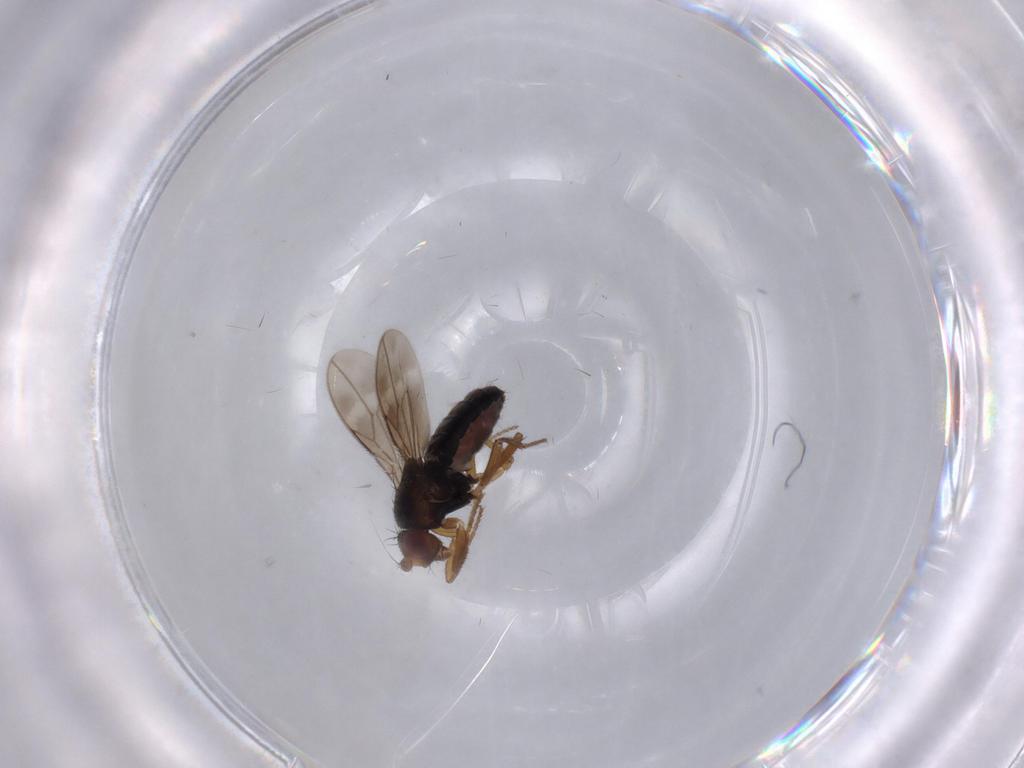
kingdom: Animalia
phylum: Arthropoda
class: Insecta
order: Diptera
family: Sphaeroceridae
